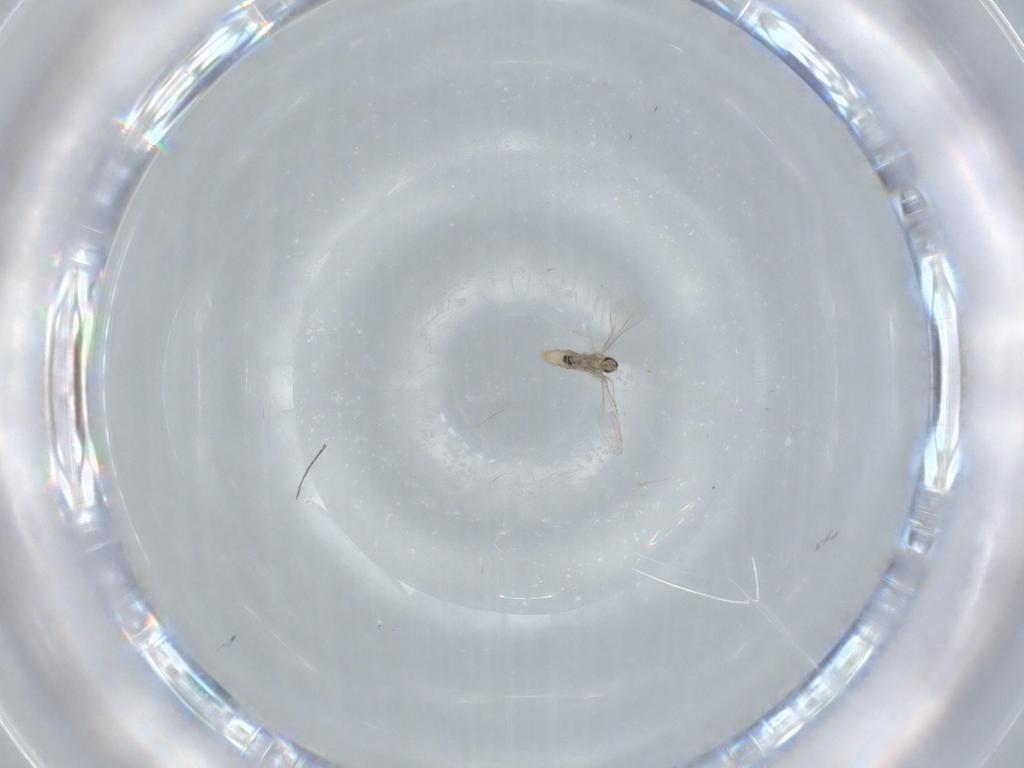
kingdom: Animalia
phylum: Arthropoda
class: Insecta
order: Diptera
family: Cecidomyiidae
